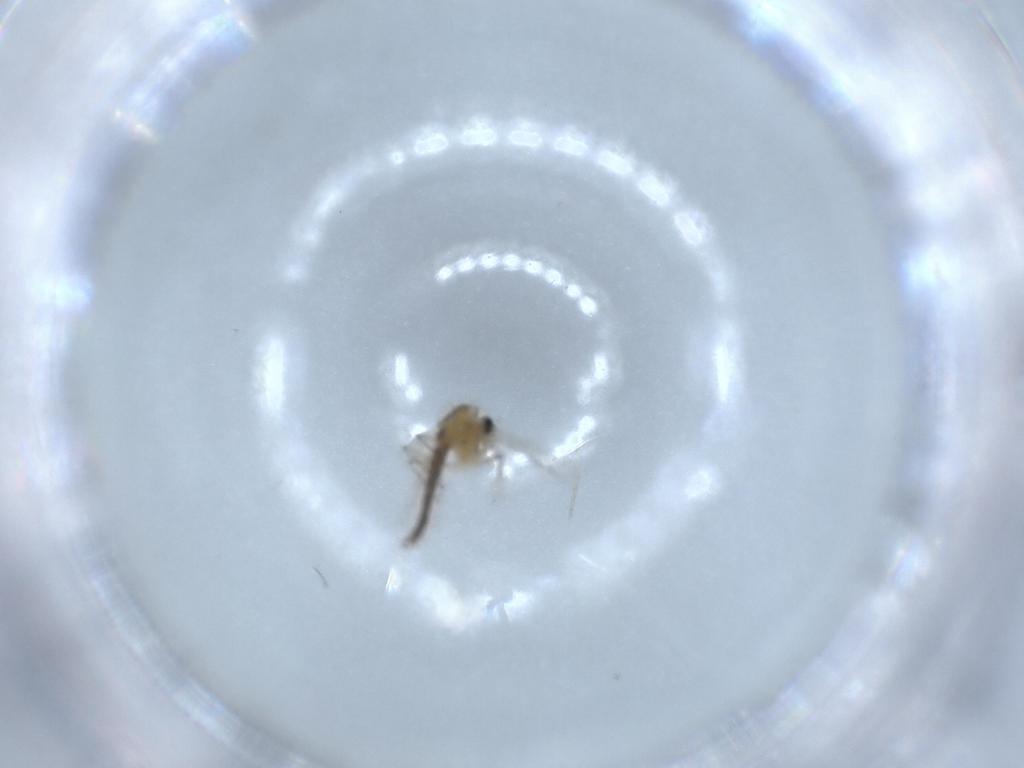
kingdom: Animalia
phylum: Arthropoda
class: Insecta
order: Diptera
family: Chironomidae
